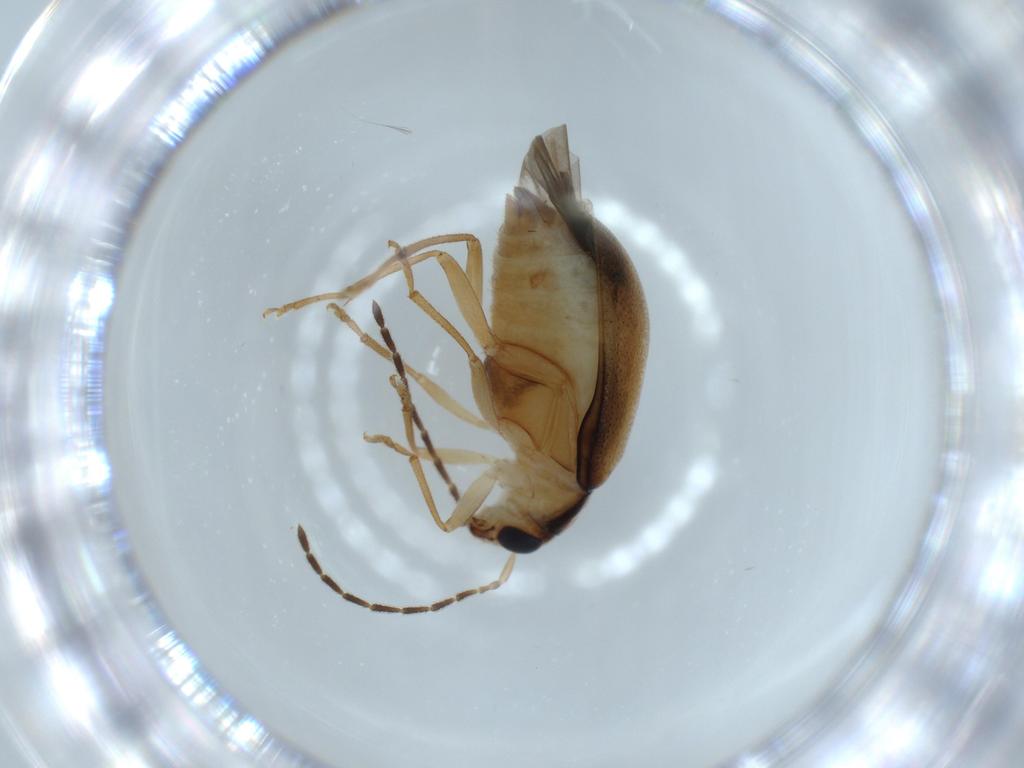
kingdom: Animalia
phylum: Arthropoda
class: Insecta
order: Coleoptera
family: Chrysomelidae
